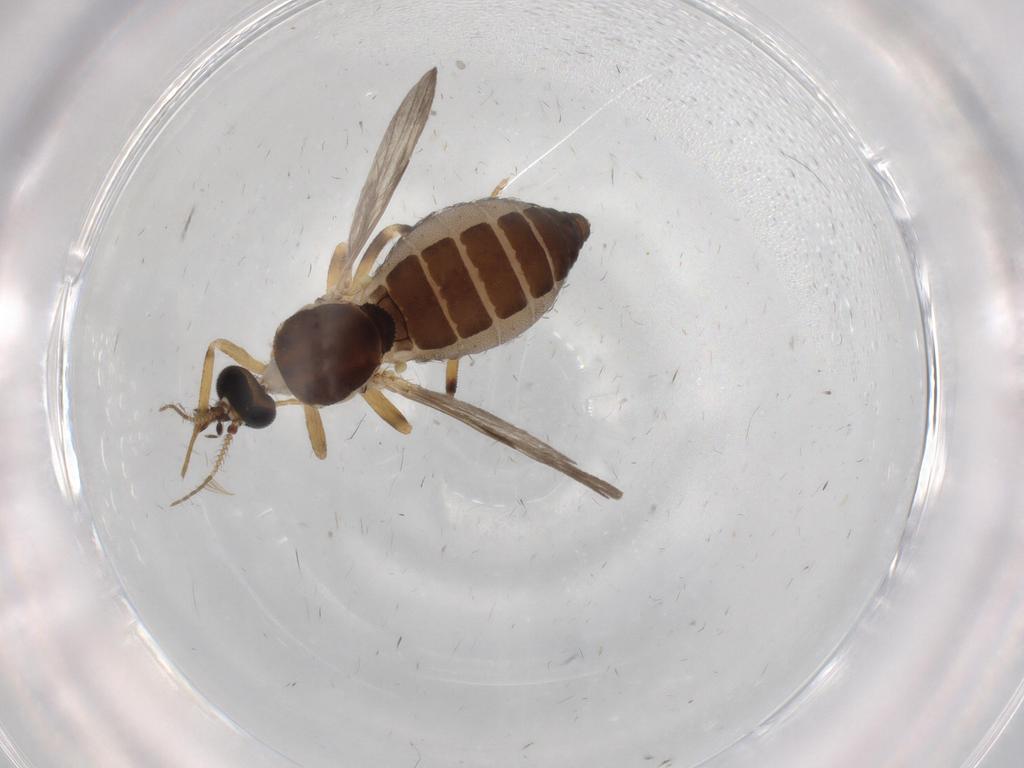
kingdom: Animalia
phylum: Arthropoda
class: Insecta
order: Diptera
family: Ceratopogonidae
